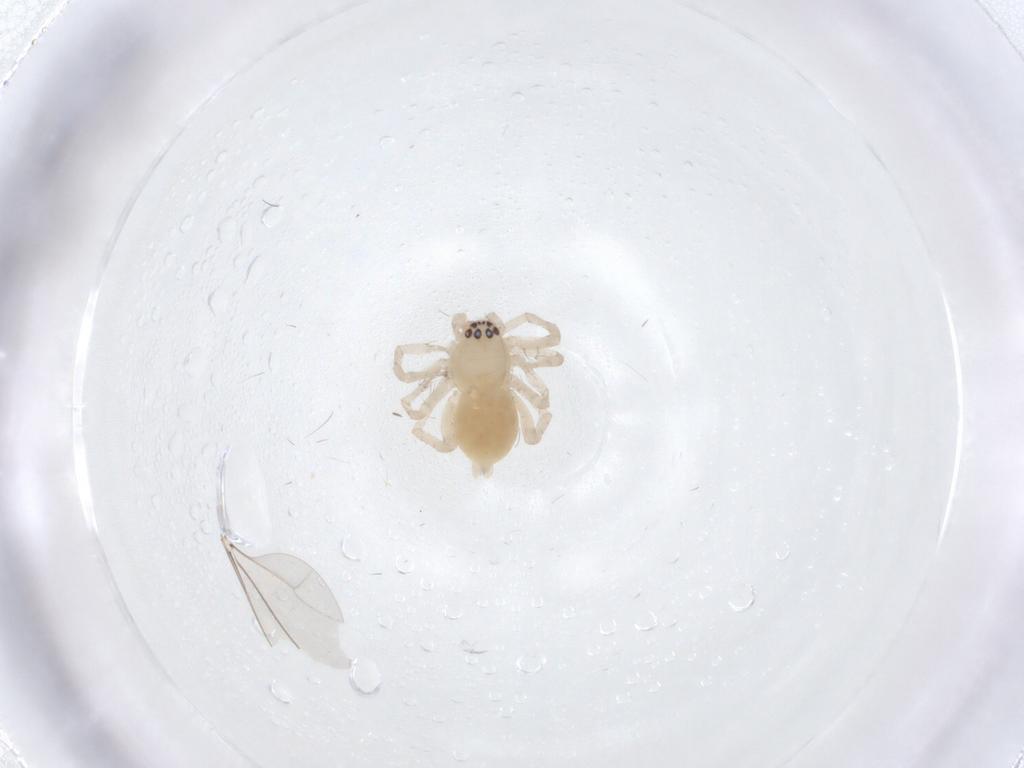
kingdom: Animalia
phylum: Arthropoda
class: Arachnida
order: Araneae
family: Anyphaenidae
